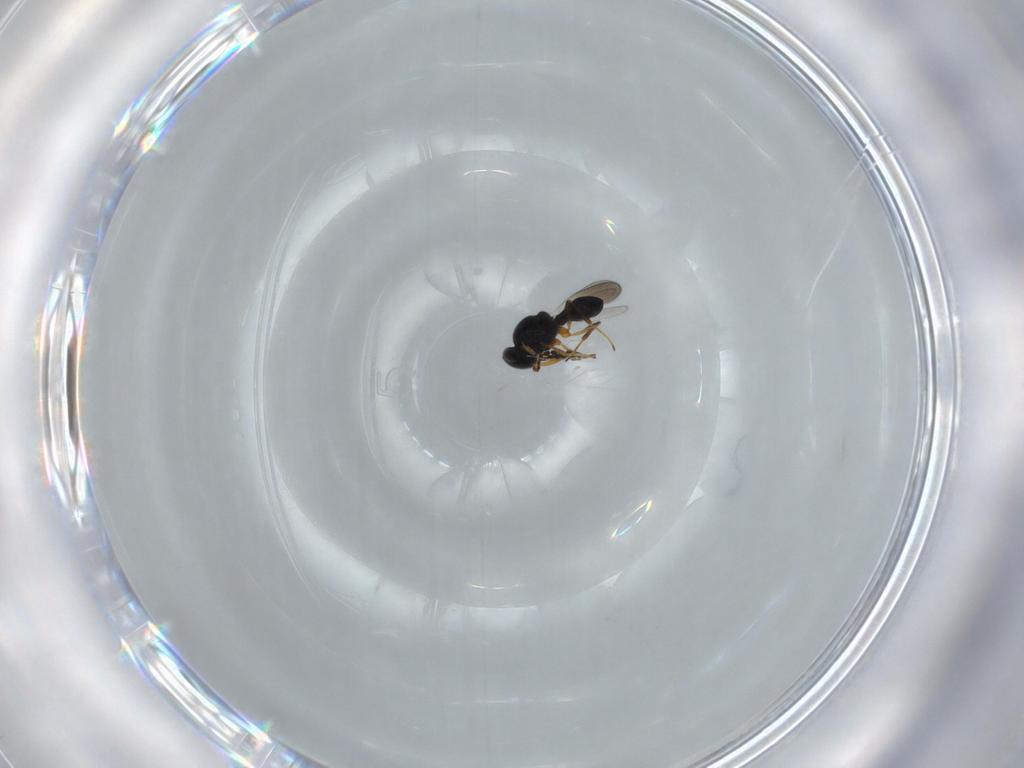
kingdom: Animalia
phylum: Arthropoda
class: Insecta
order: Hymenoptera
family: Platygastridae
